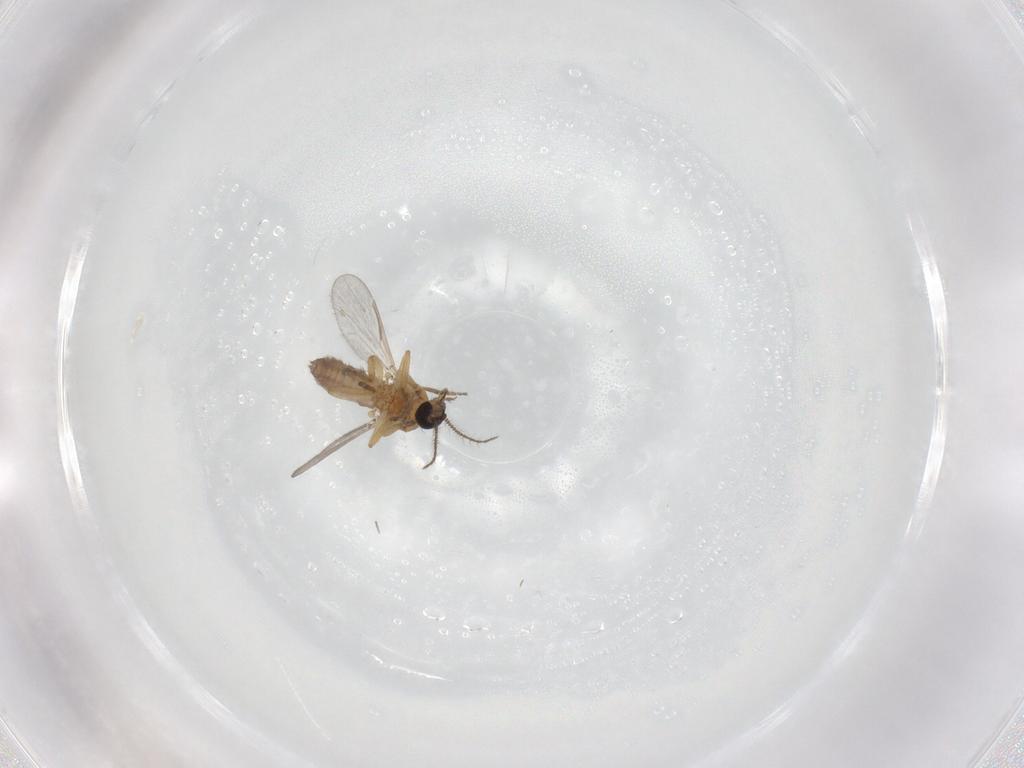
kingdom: Animalia
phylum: Arthropoda
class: Insecta
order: Diptera
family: Ceratopogonidae
